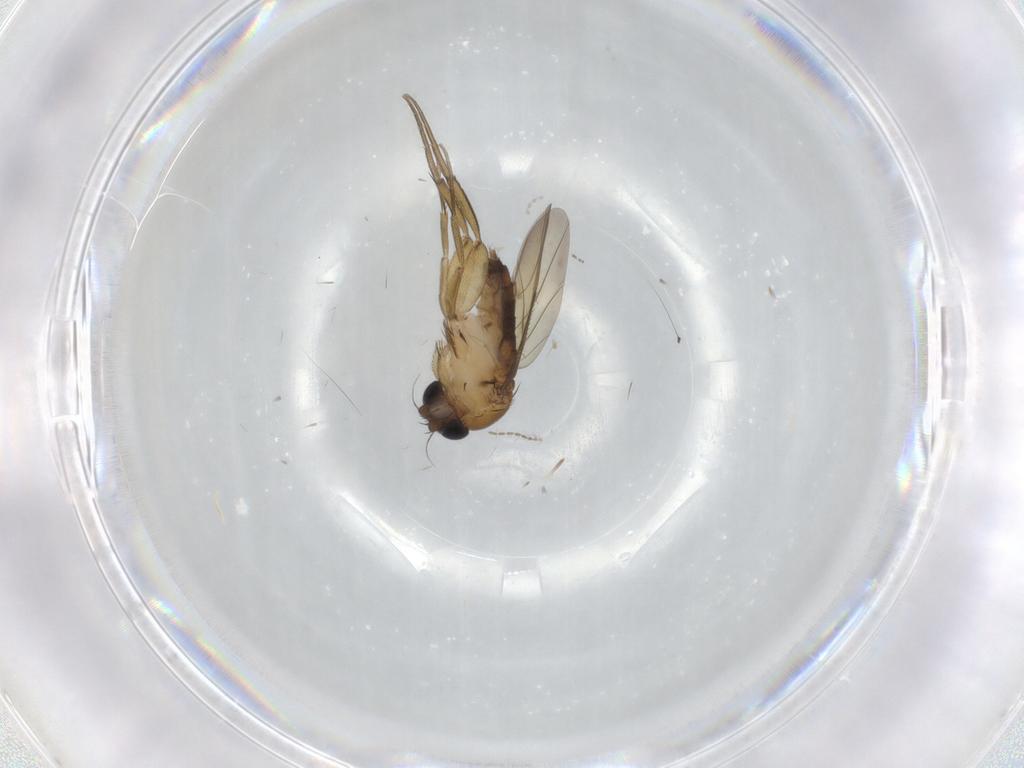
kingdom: Animalia
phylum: Arthropoda
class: Insecta
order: Diptera
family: Phoridae
